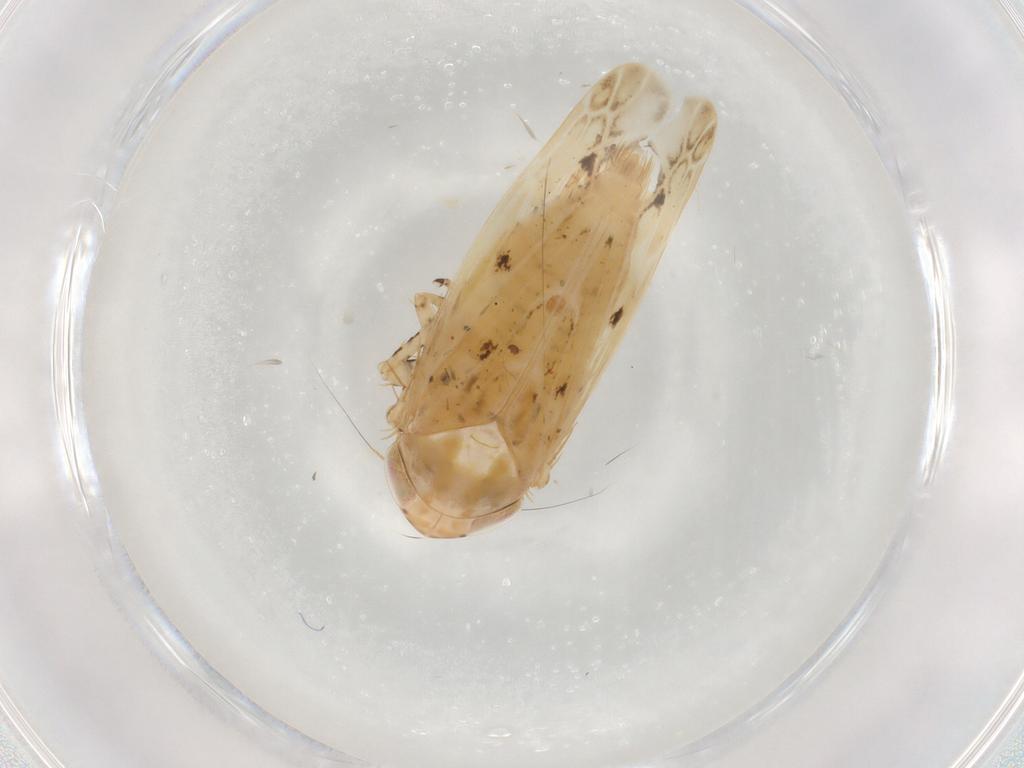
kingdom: Animalia
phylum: Arthropoda
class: Insecta
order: Hemiptera
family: Cicadellidae
